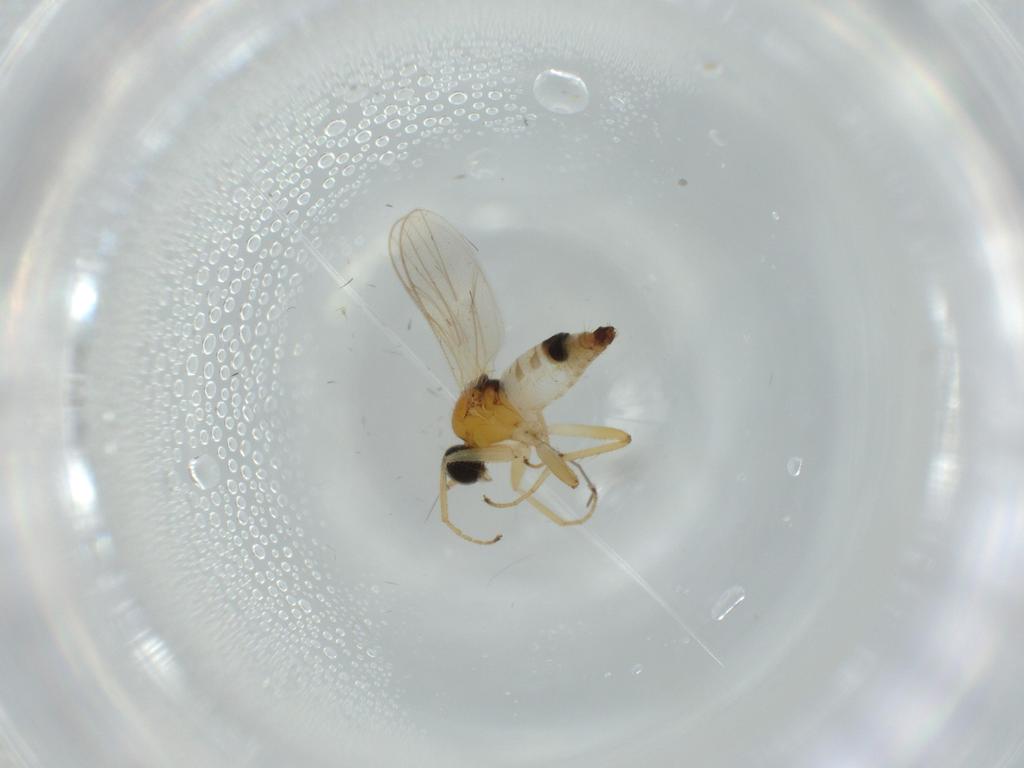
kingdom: Animalia
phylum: Arthropoda
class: Insecta
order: Diptera
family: Hybotidae
